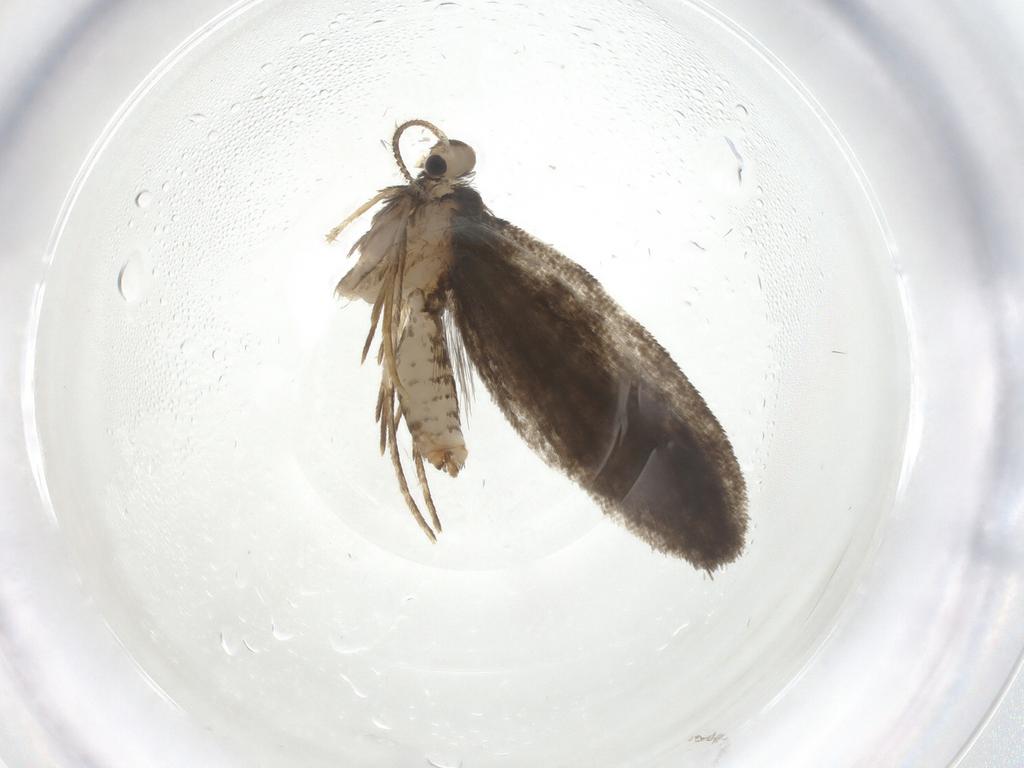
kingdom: Animalia
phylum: Arthropoda
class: Insecta
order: Lepidoptera
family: Psychidae
